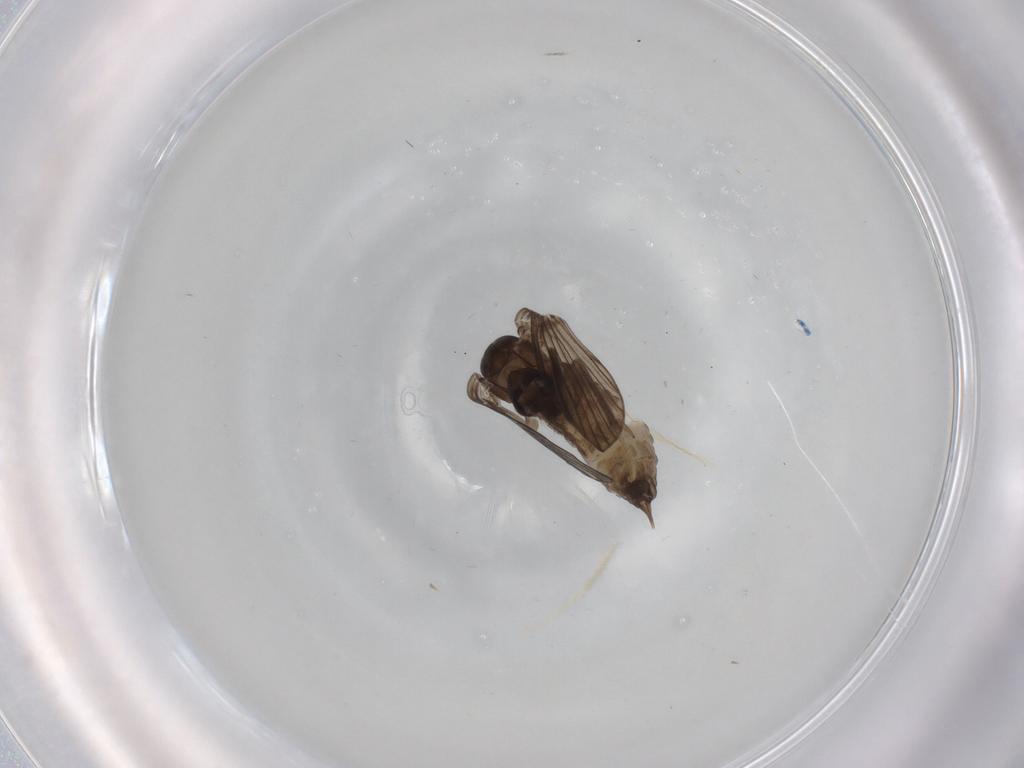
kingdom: Animalia
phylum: Arthropoda
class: Insecta
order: Diptera
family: Psychodidae
